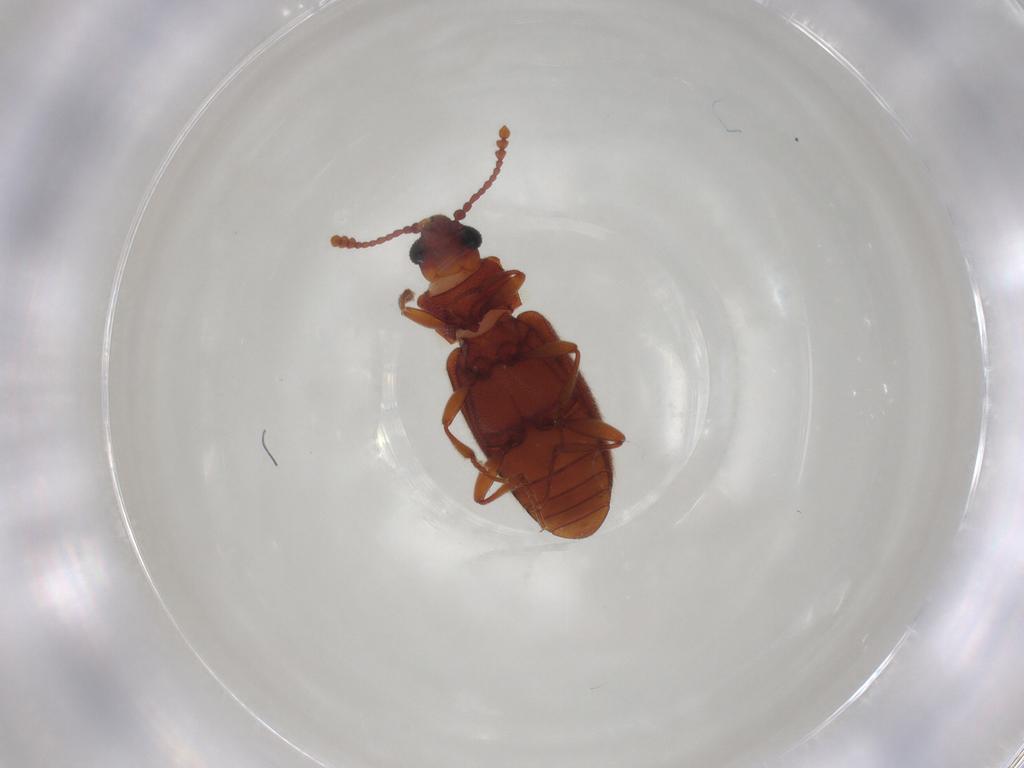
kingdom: Animalia
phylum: Arthropoda
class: Insecta
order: Coleoptera
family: Cryptophagidae
